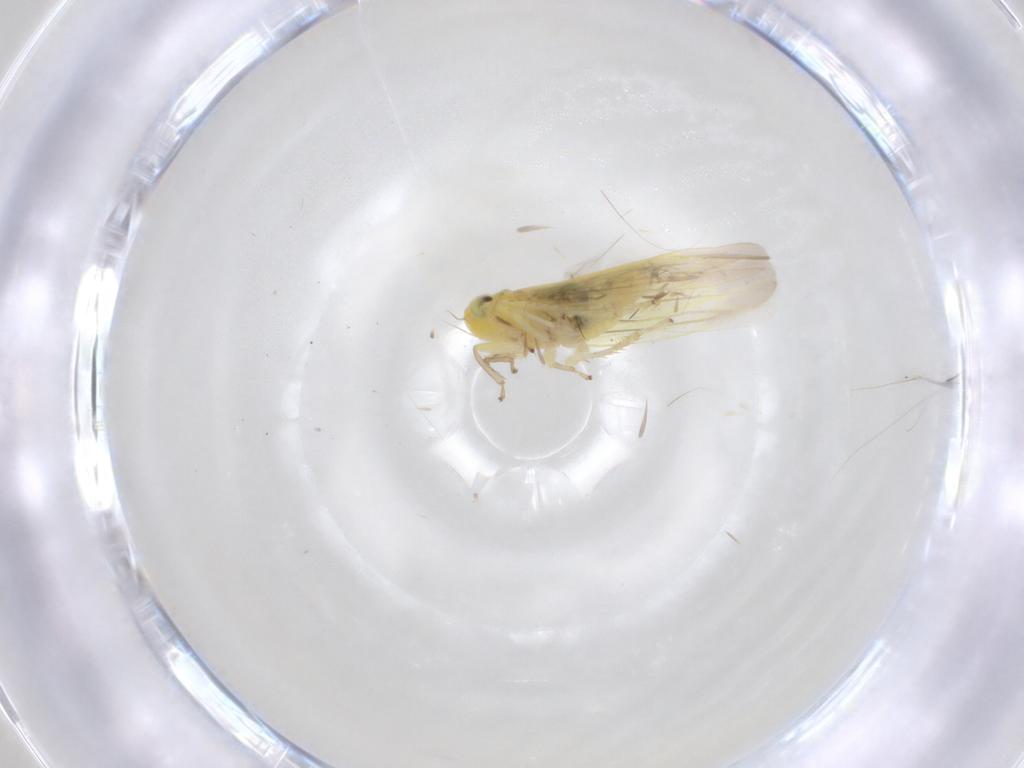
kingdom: Animalia
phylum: Arthropoda
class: Insecta
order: Hemiptera
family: Cicadellidae
